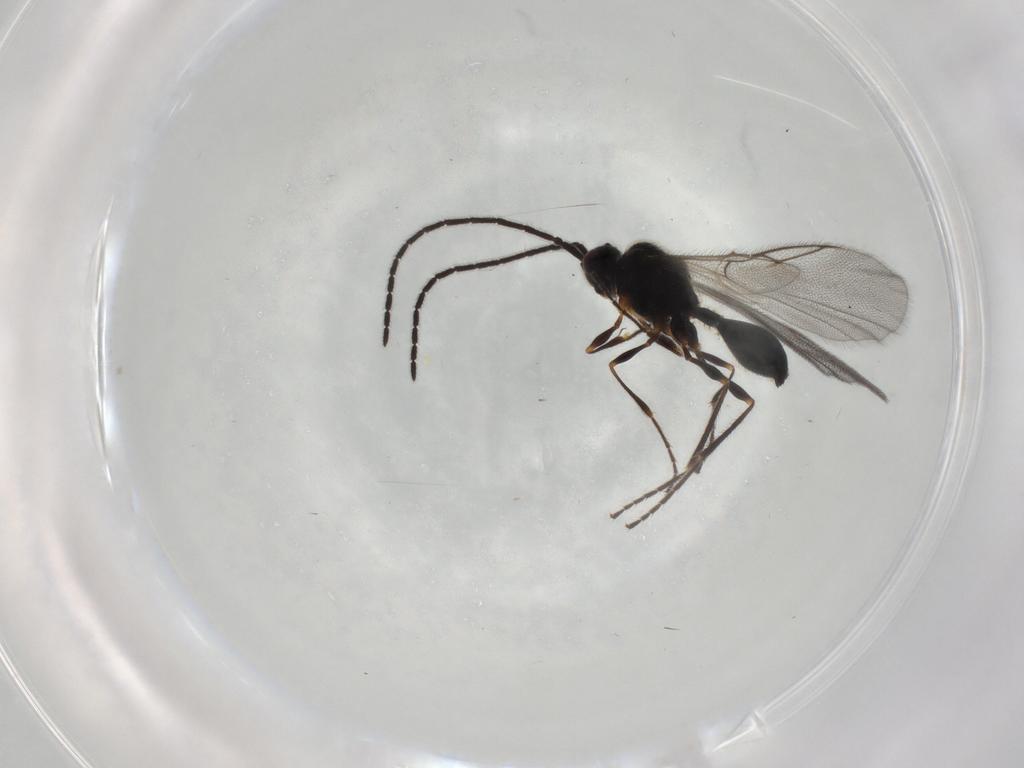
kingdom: Animalia
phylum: Arthropoda
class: Insecta
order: Hymenoptera
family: Diapriidae
